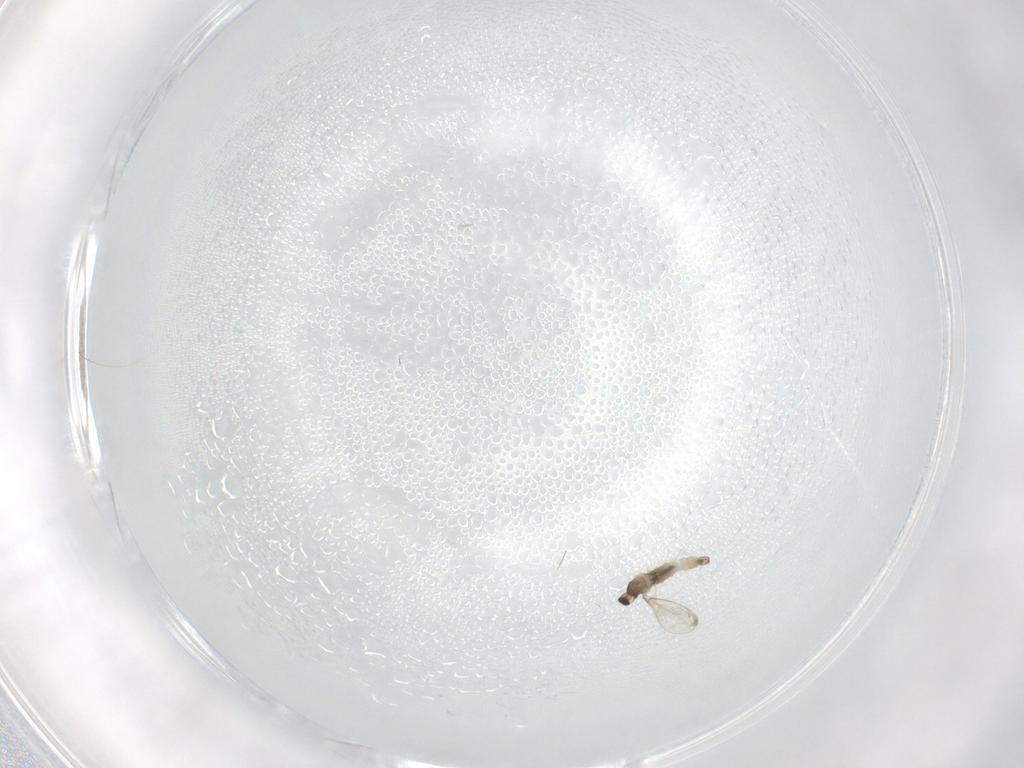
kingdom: Animalia
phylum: Arthropoda
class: Insecta
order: Diptera
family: Cecidomyiidae
